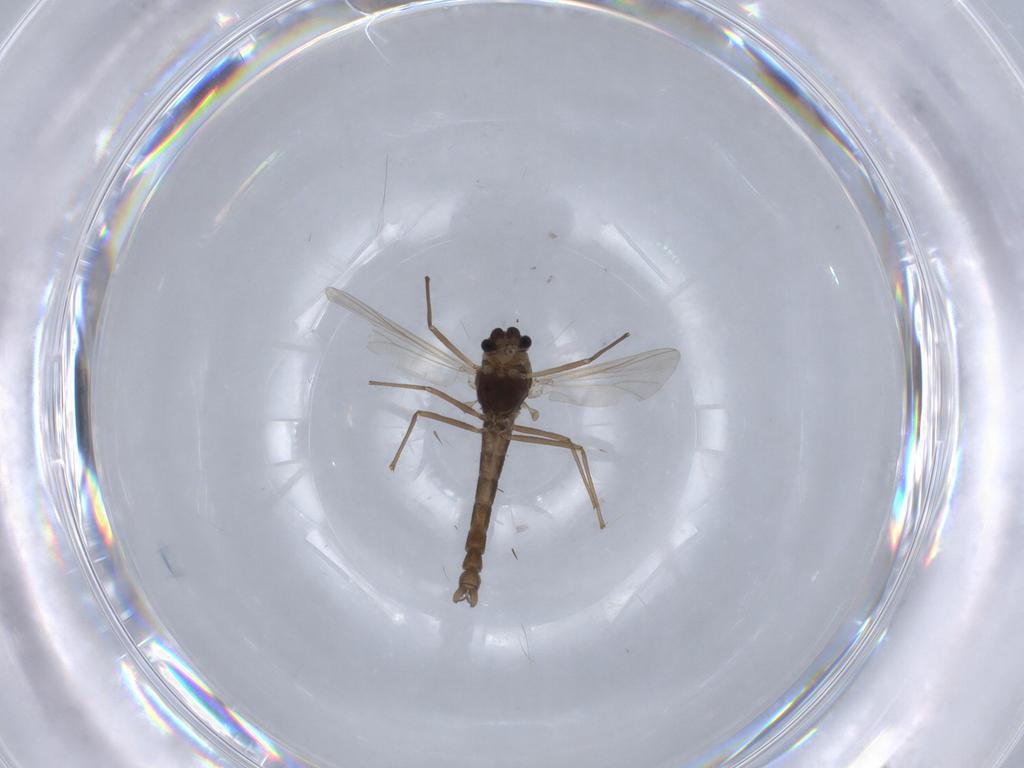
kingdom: Animalia
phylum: Arthropoda
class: Insecta
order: Diptera
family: Chironomidae
